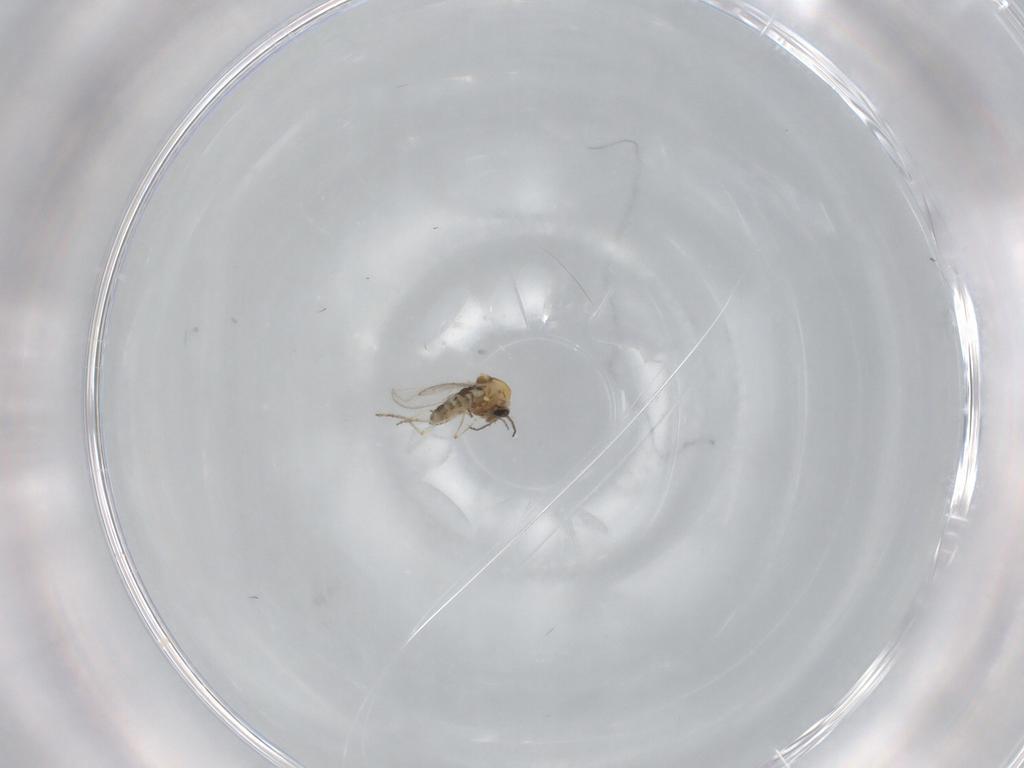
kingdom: Animalia
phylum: Arthropoda
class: Insecta
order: Diptera
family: Ceratopogonidae
